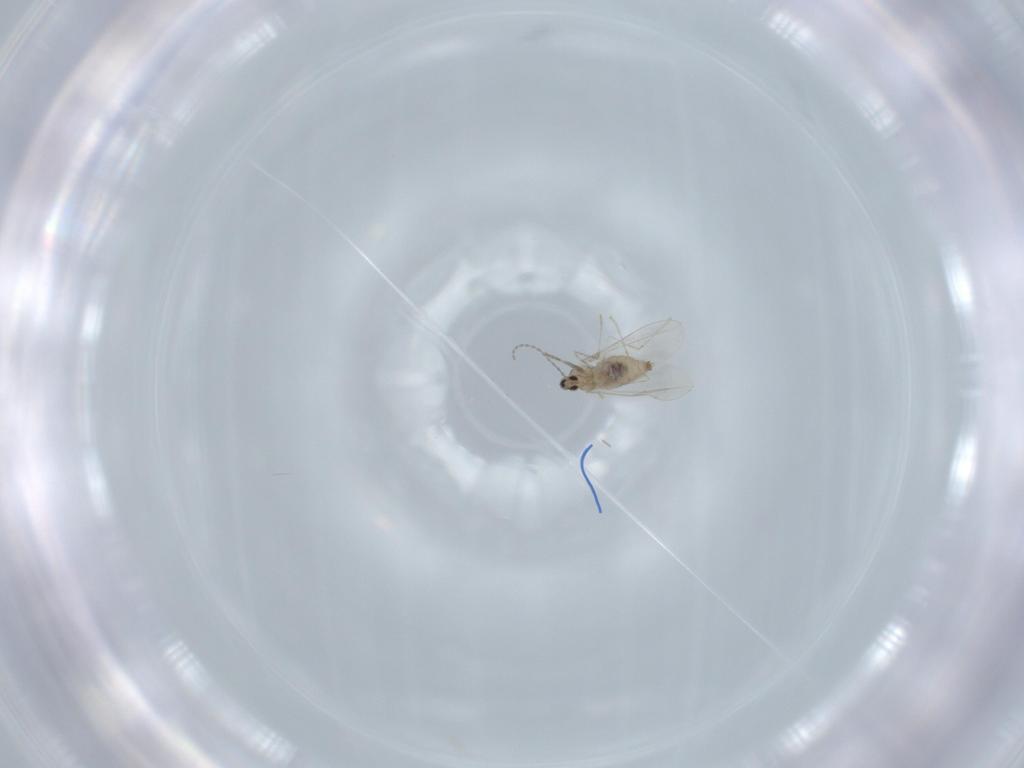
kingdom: Animalia
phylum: Arthropoda
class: Insecta
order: Diptera
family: Cecidomyiidae
